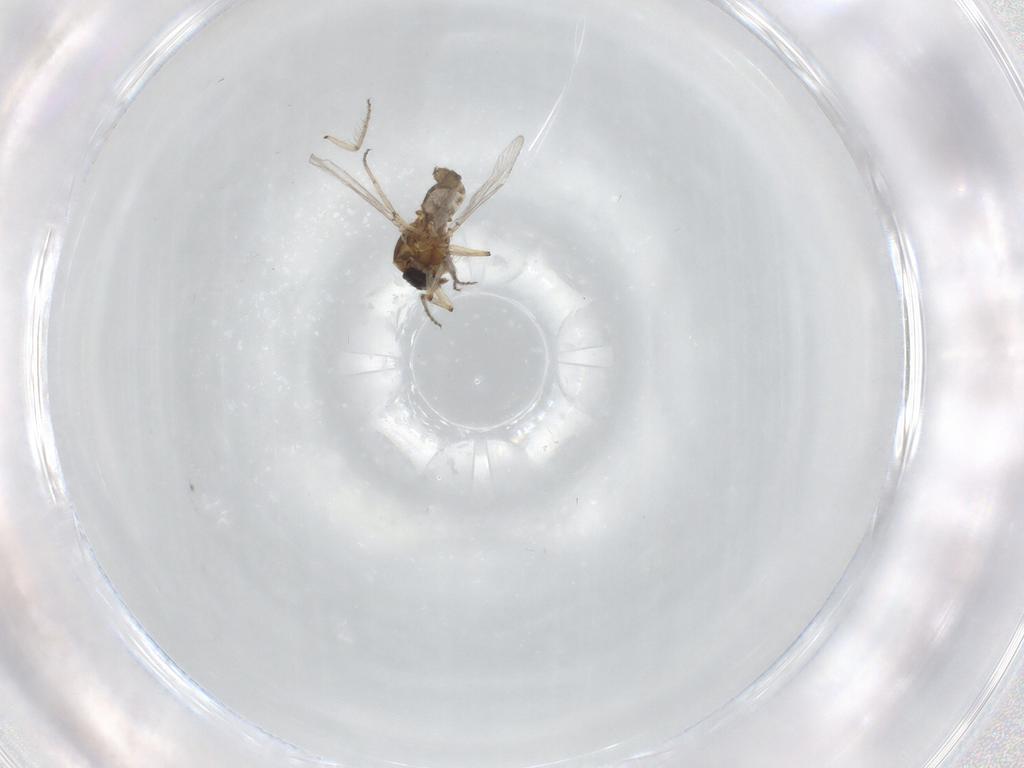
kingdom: Animalia
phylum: Arthropoda
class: Insecta
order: Diptera
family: Ceratopogonidae
